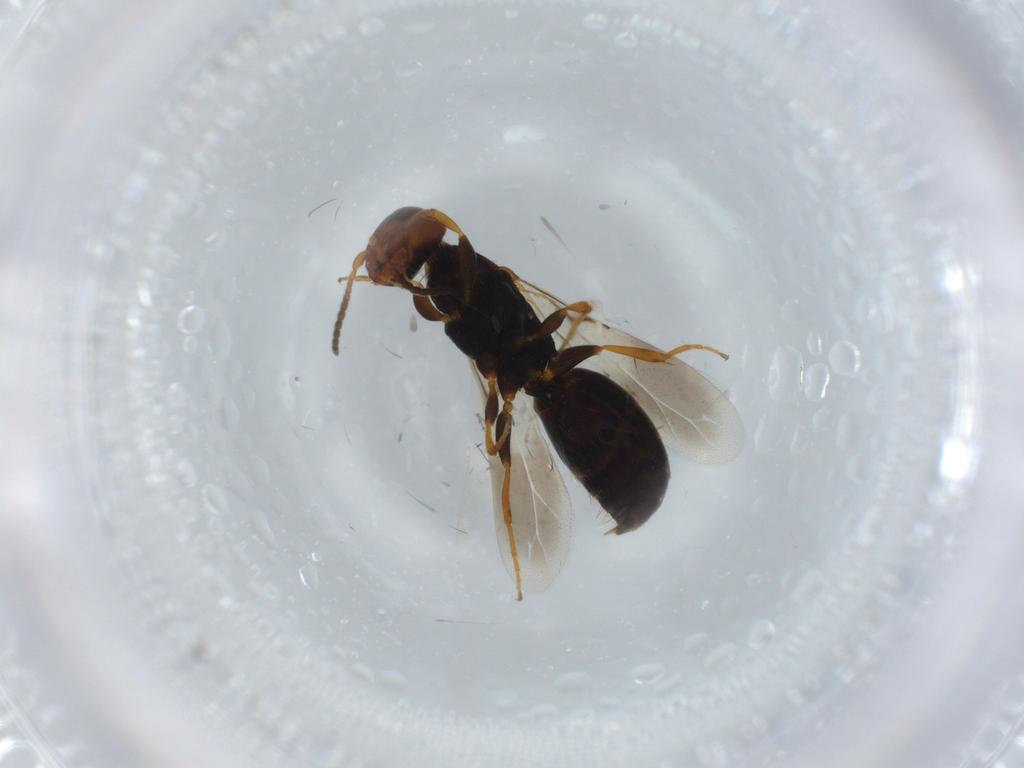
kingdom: Animalia
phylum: Arthropoda
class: Insecta
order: Hymenoptera
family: Bethylidae
